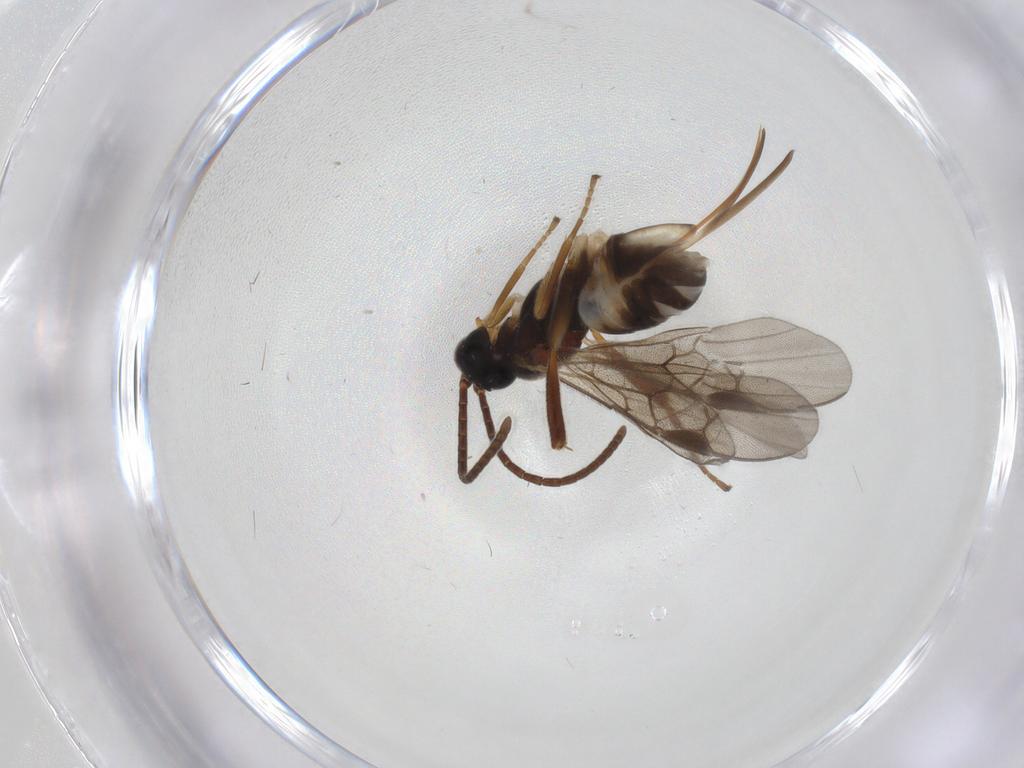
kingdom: Animalia
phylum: Arthropoda
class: Insecta
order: Hymenoptera
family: Braconidae
